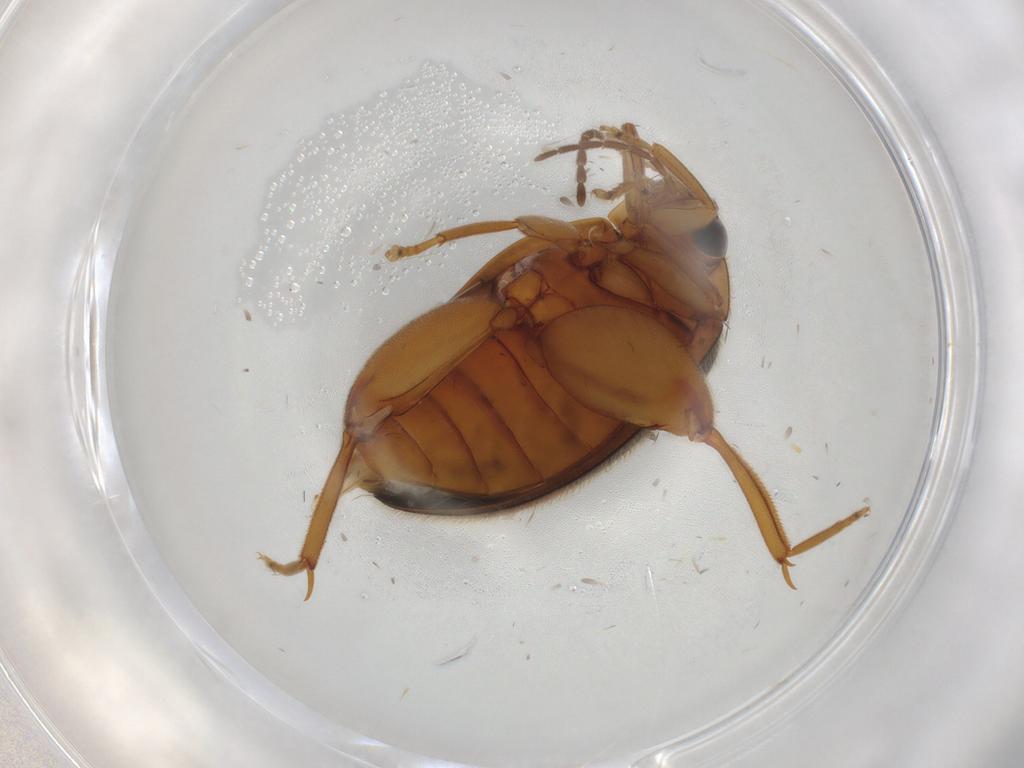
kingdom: Animalia
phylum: Arthropoda
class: Insecta
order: Coleoptera
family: Scirtidae
